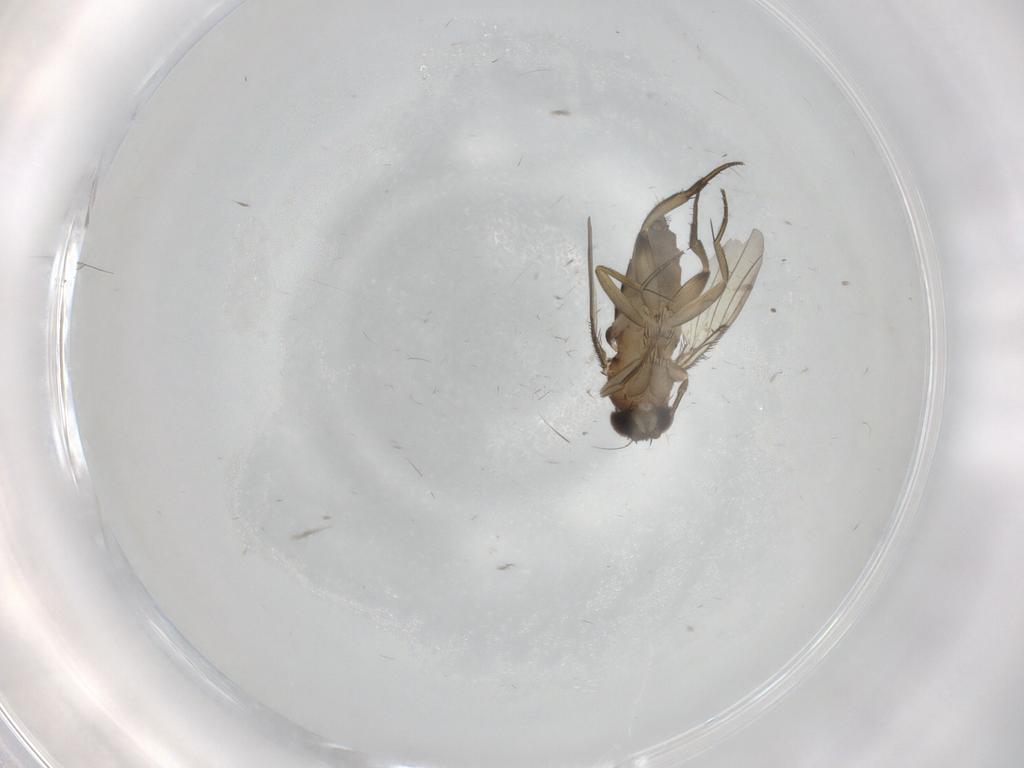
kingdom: Animalia
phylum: Arthropoda
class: Insecta
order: Diptera
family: Phoridae
